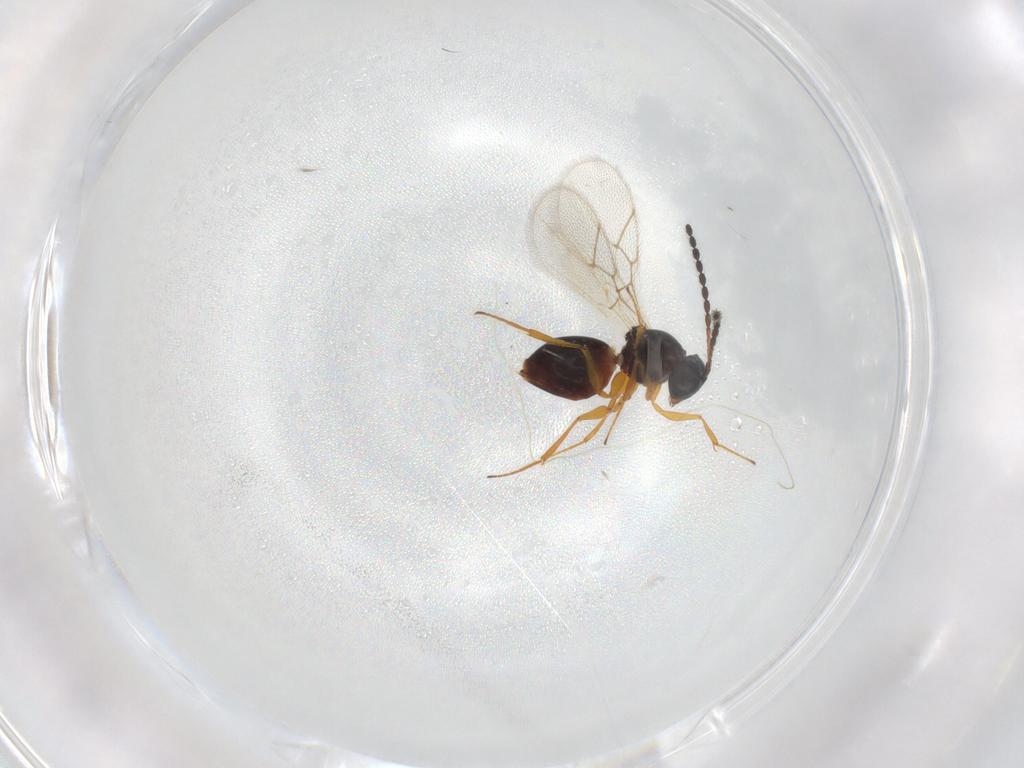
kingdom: Animalia
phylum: Arthropoda
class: Insecta
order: Hymenoptera
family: Figitidae
